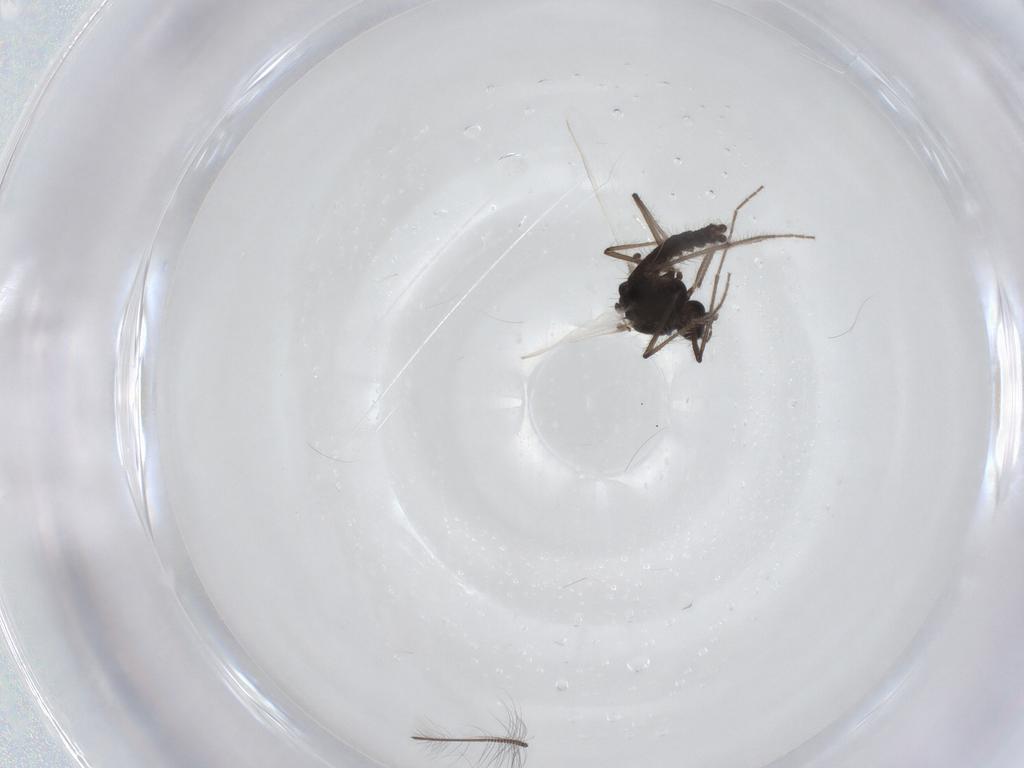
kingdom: Animalia
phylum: Arthropoda
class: Insecta
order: Diptera
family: Chironomidae
